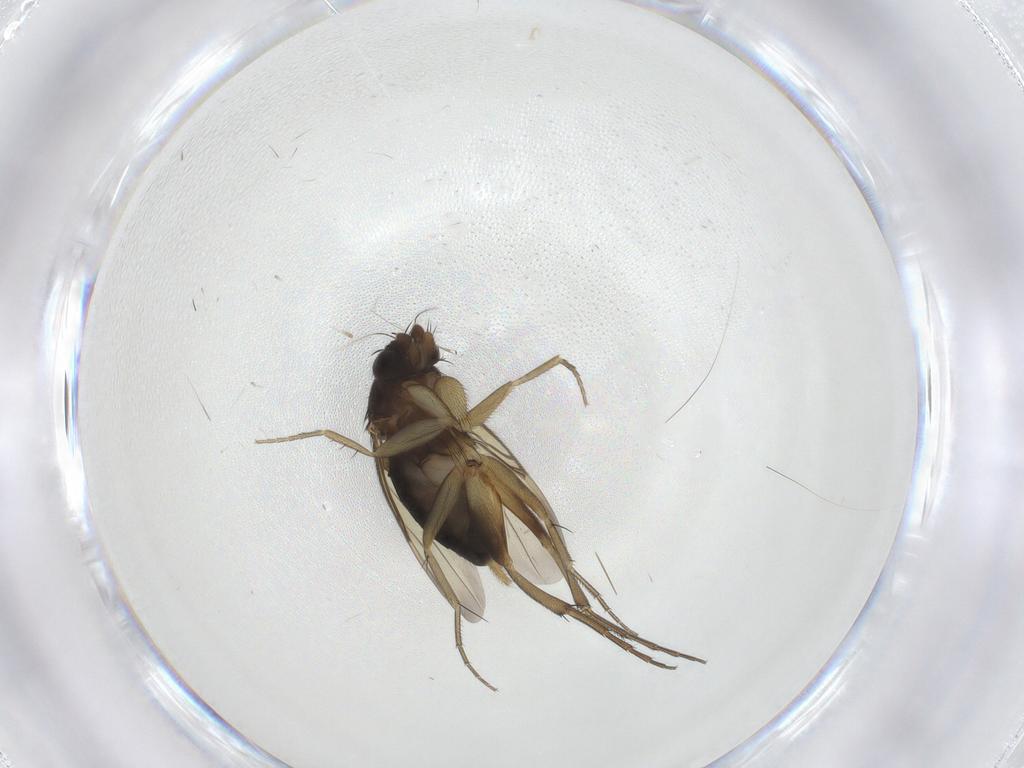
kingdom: Animalia
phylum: Arthropoda
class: Insecta
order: Diptera
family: Phoridae
